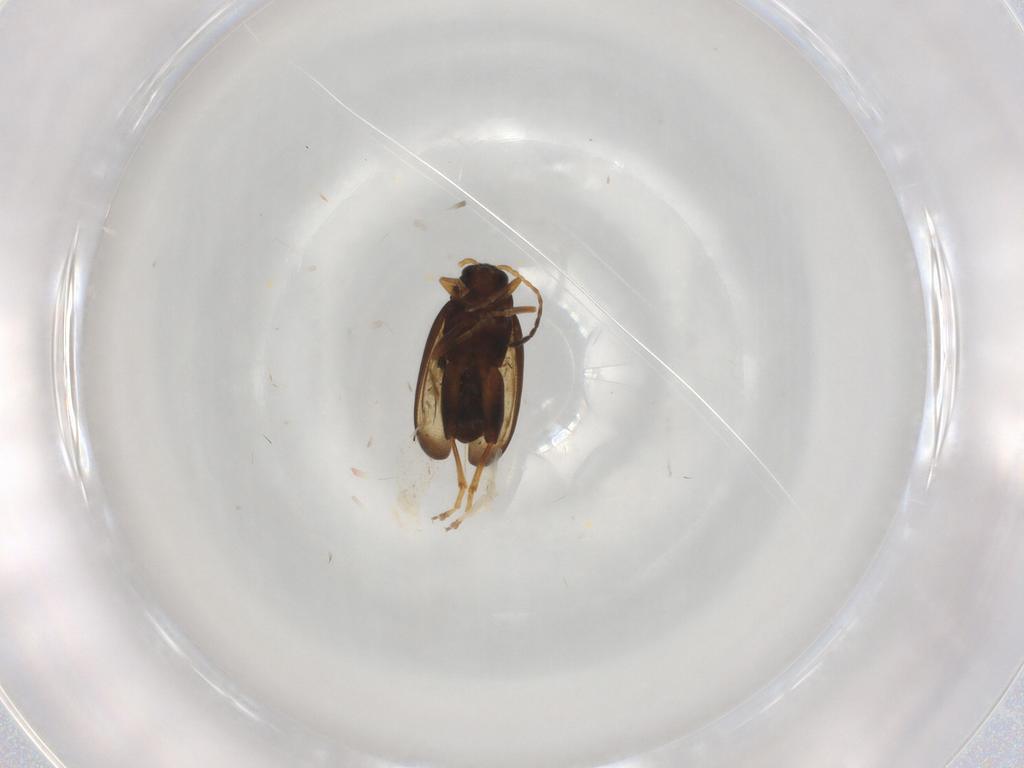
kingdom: Animalia
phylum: Arthropoda
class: Insecta
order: Coleoptera
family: Chrysomelidae
